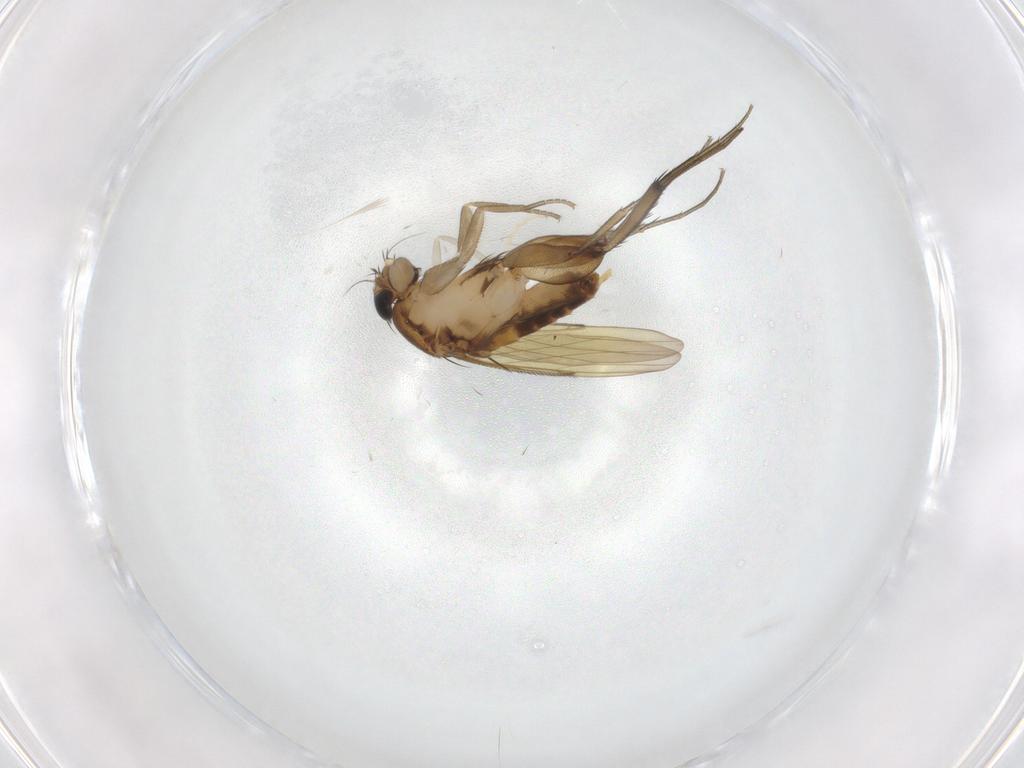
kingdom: Animalia
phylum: Arthropoda
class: Insecta
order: Diptera
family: Phoridae
